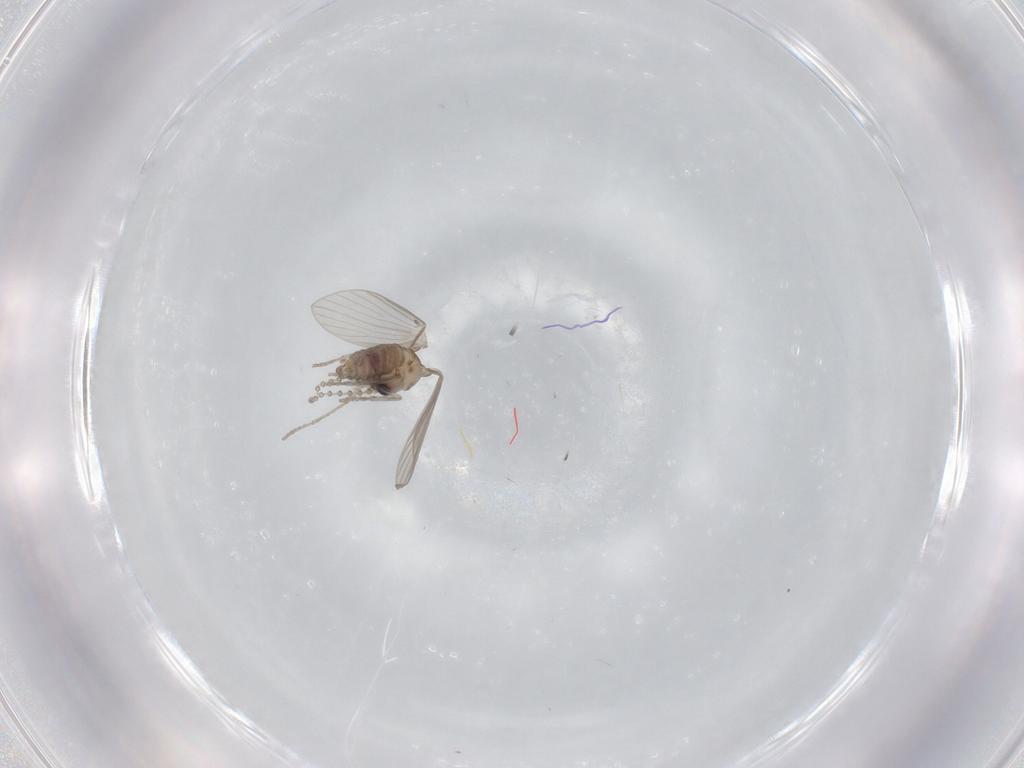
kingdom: Animalia
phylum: Arthropoda
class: Insecta
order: Diptera
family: Psychodidae
